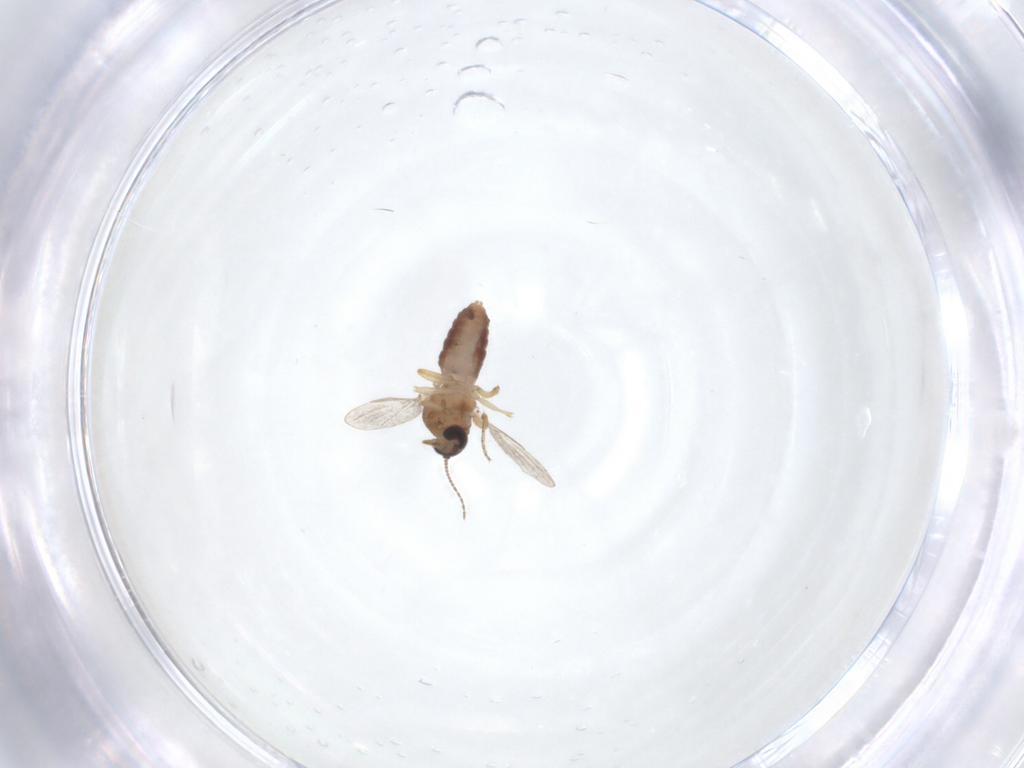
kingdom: Animalia
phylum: Arthropoda
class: Insecta
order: Diptera
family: Ceratopogonidae
